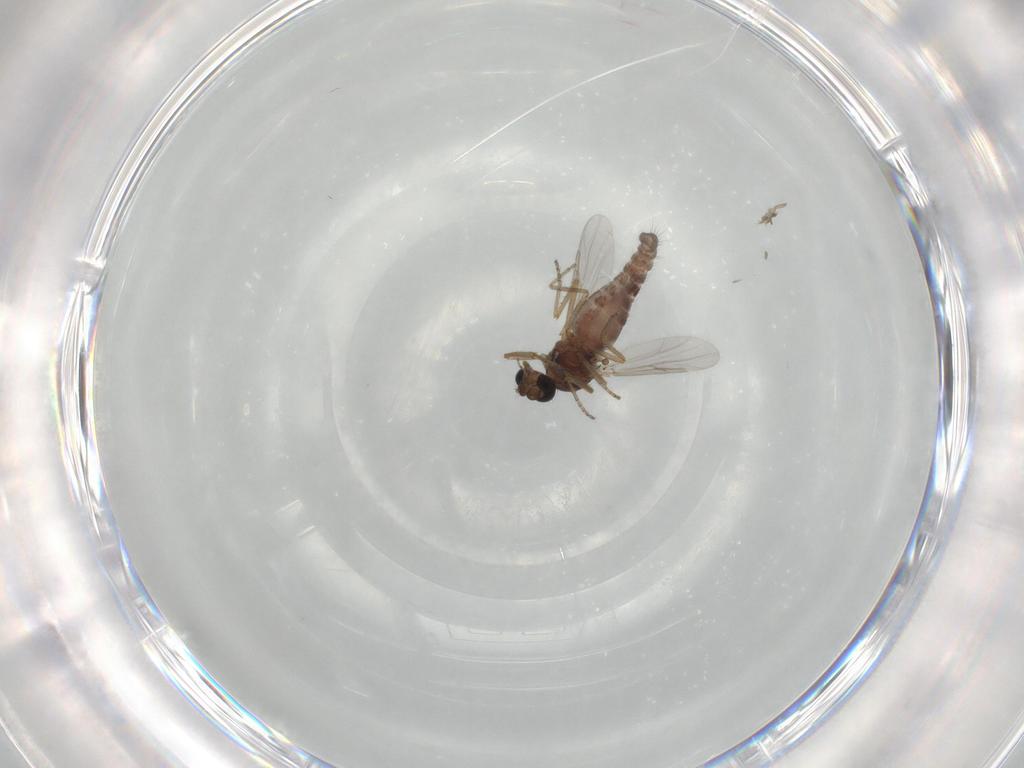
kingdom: Animalia
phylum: Arthropoda
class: Insecta
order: Diptera
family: Ceratopogonidae
